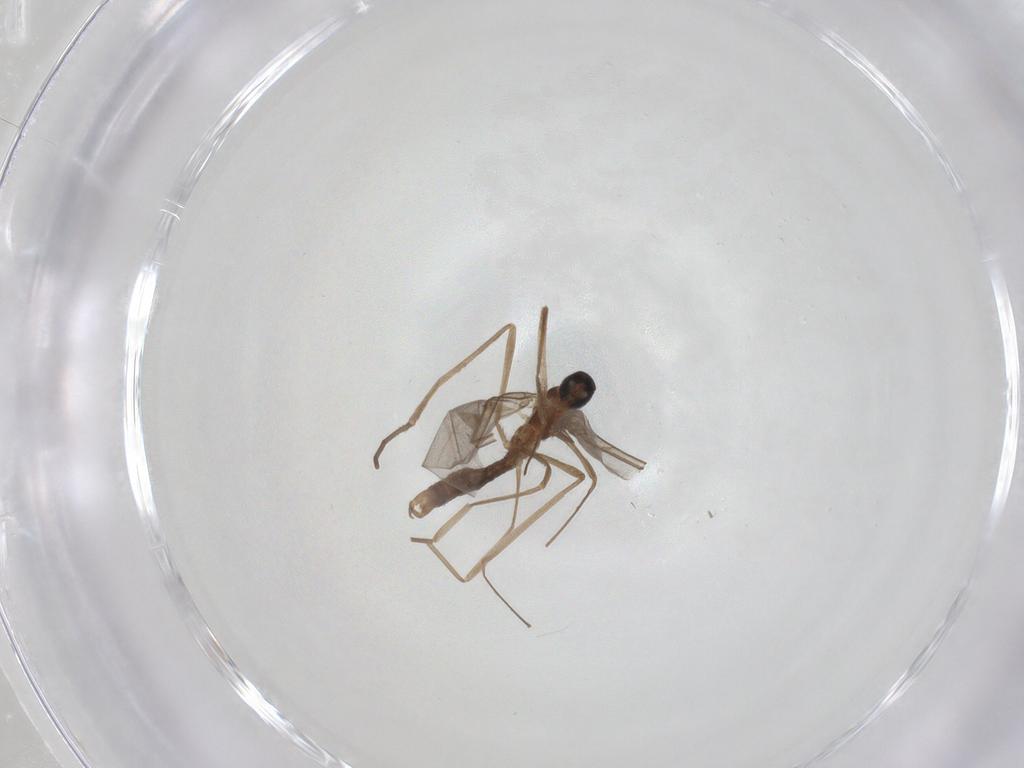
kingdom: Animalia
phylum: Arthropoda
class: Insecta
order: Diptera
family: Cecidomyiidae
